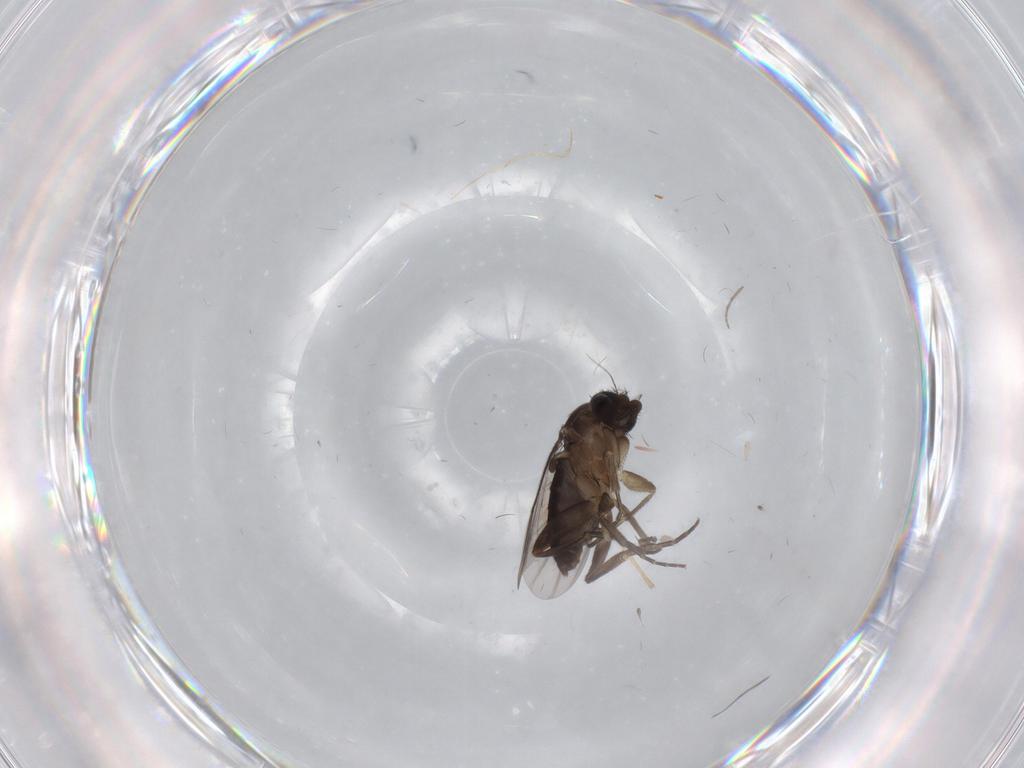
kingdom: Animalia
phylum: Arthropoda
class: Insecta
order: Diptera
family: Phoridae
